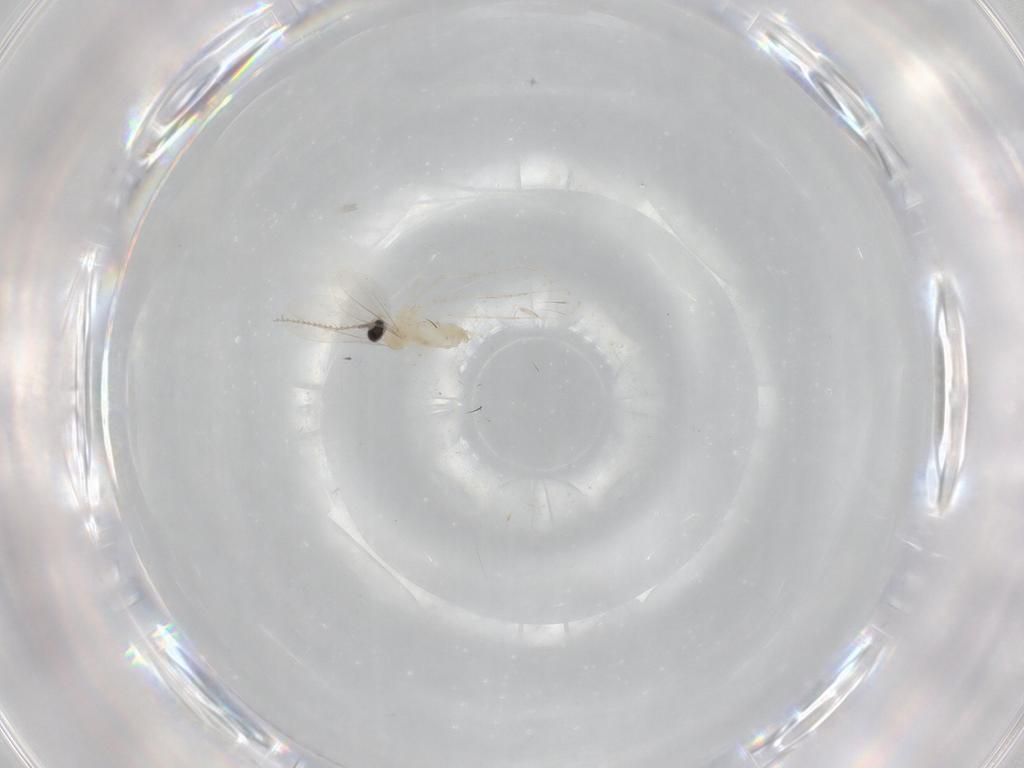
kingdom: Animalia
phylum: Arthropoda
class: Insecta
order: Diptera
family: Cecidomyiidae
